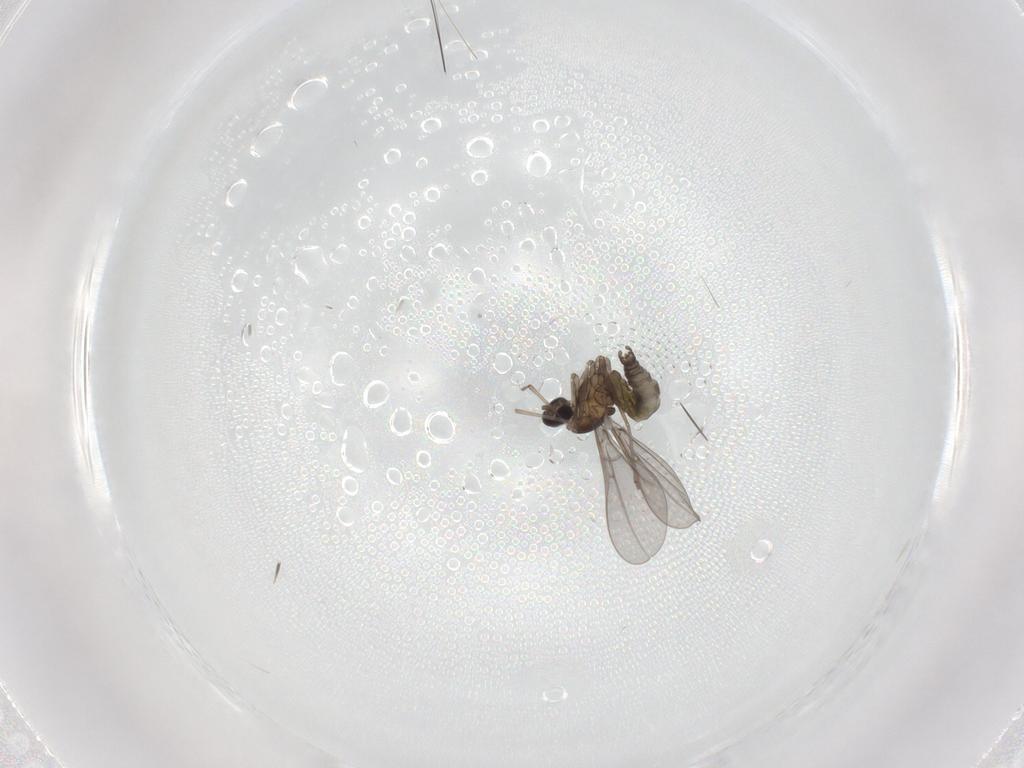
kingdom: Animalia
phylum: Arthropoda
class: Insecta
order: Diptera
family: Cecidomyiidae
